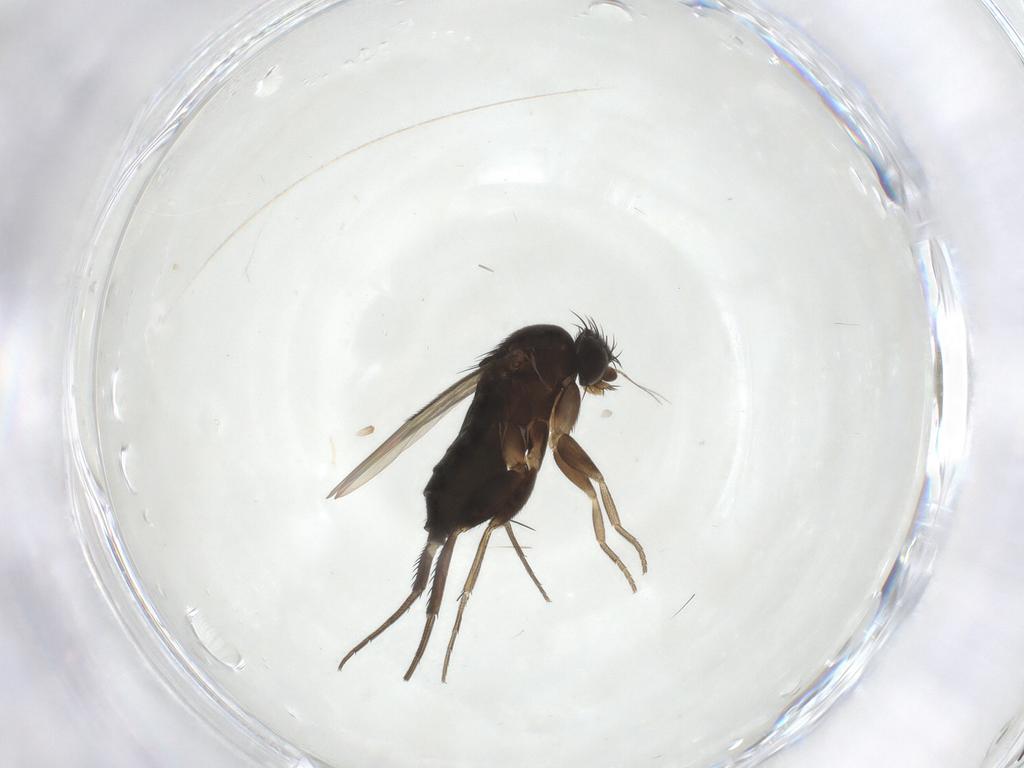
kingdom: Animalia
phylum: Arthropoda
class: Insecta
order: Diptera
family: Phoridae
